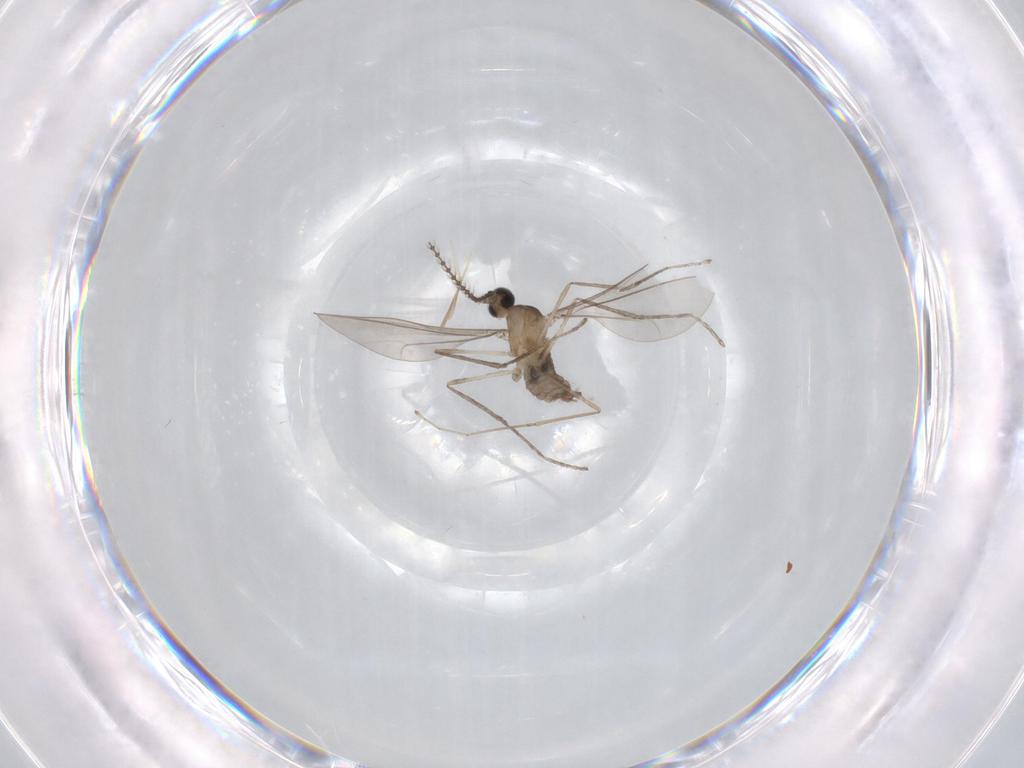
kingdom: Animalia
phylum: Arthropoda
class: Insecta
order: Diptera
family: Cecidomyiidae
